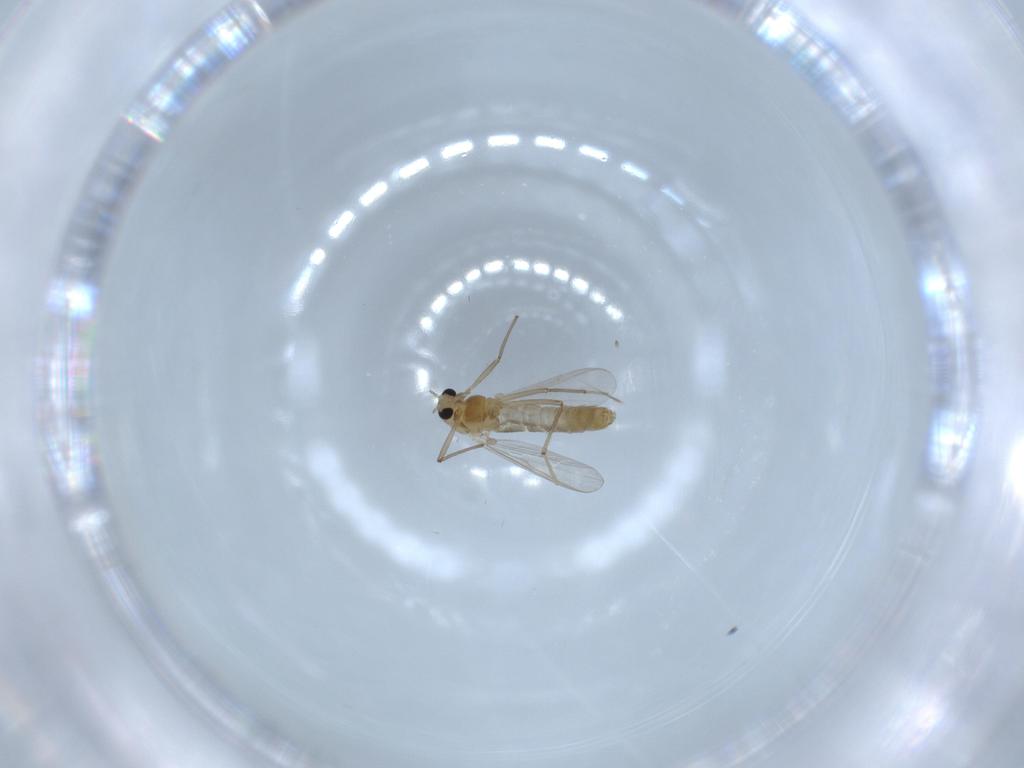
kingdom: Animalia
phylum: Arthropoda
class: Insecta
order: Diptera
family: Chironomidae
